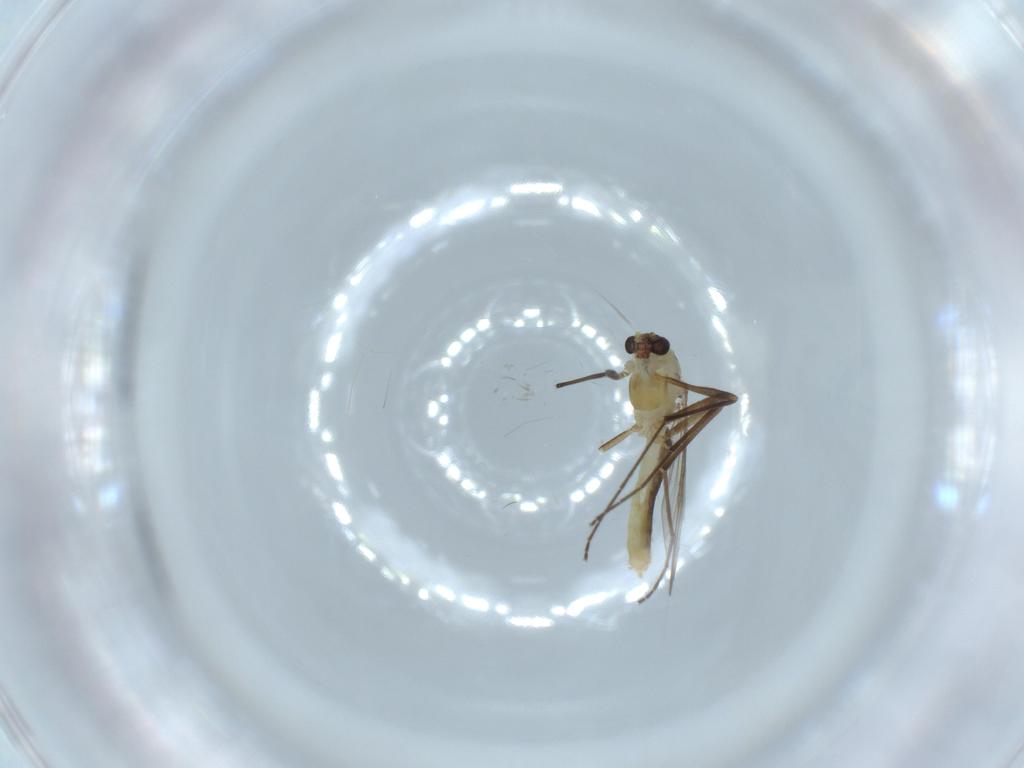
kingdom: Animalia
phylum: Arthropoda
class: Insecta
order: Diptera
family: Chironomidae
